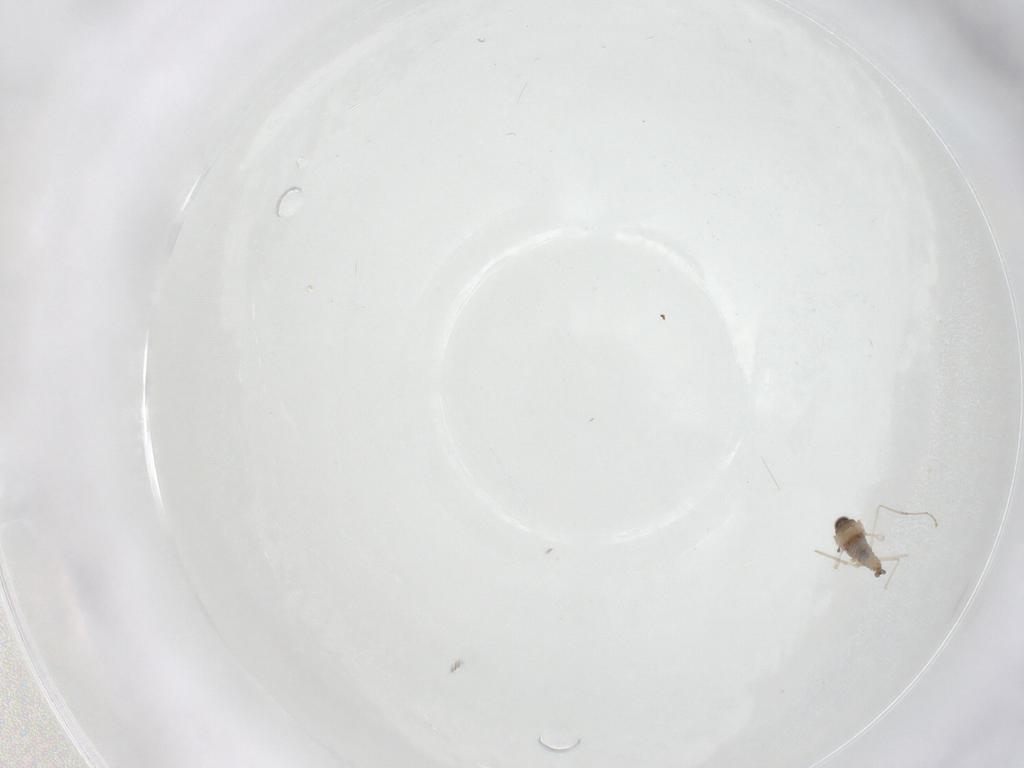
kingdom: Animalia
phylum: Arthropoda
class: Insecta
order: Diptera
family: Cecidomyiidae
